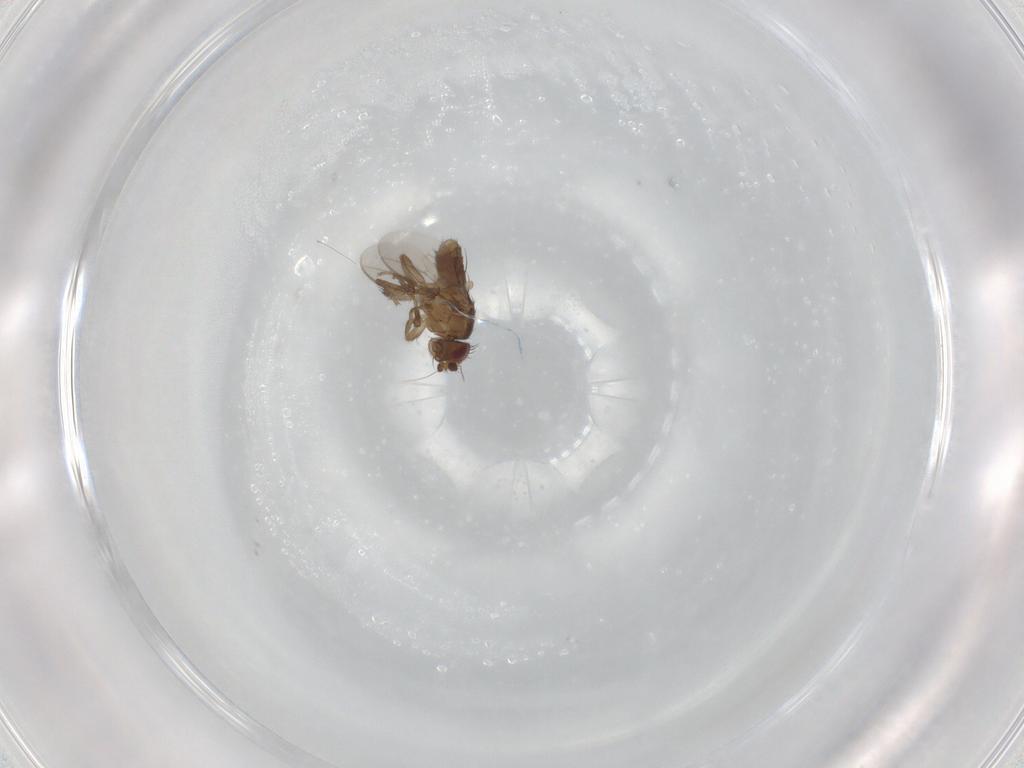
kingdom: Animalia
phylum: Arthropoda
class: Insecta
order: Diptera
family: Sphaeroceridae
